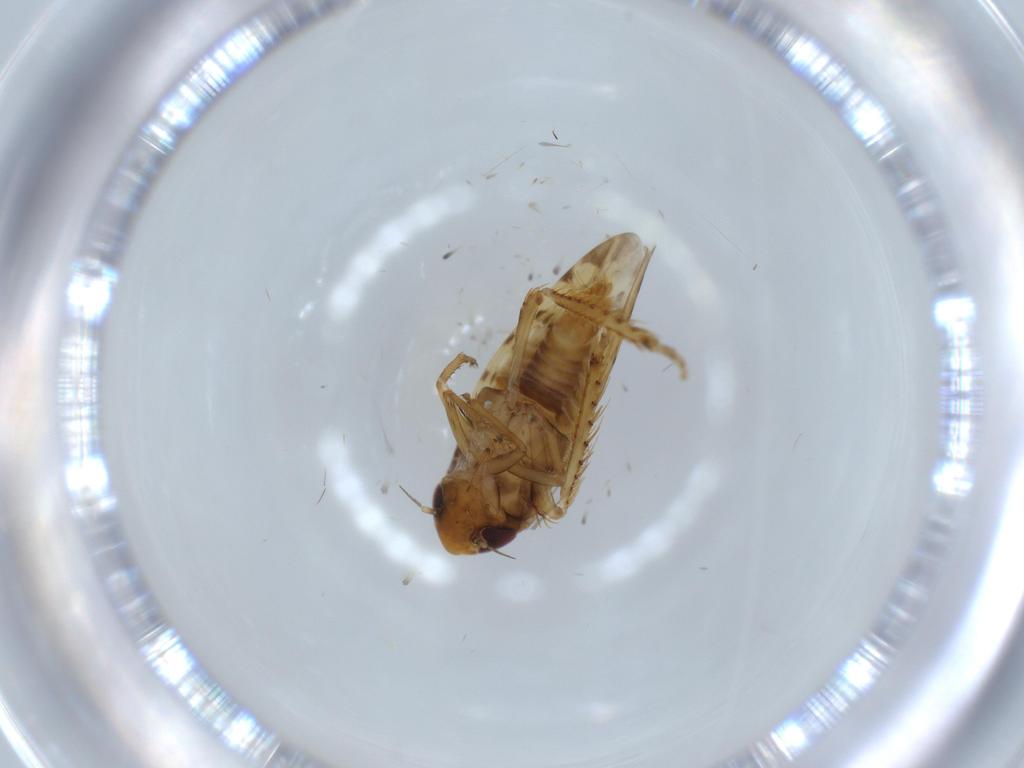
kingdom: Animalia
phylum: Arthropoda
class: Insecta
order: Hemiptera
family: Cicadellidae
